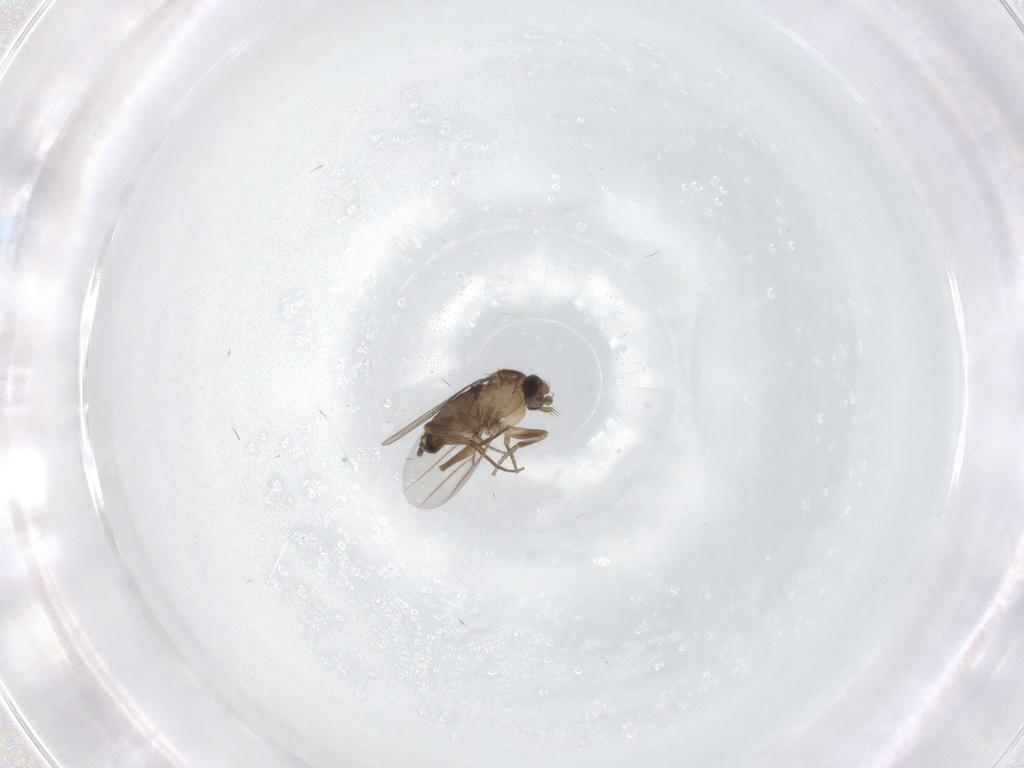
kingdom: Animalia
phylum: Arthropoda
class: Insecta
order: Diptera
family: Phoridae
